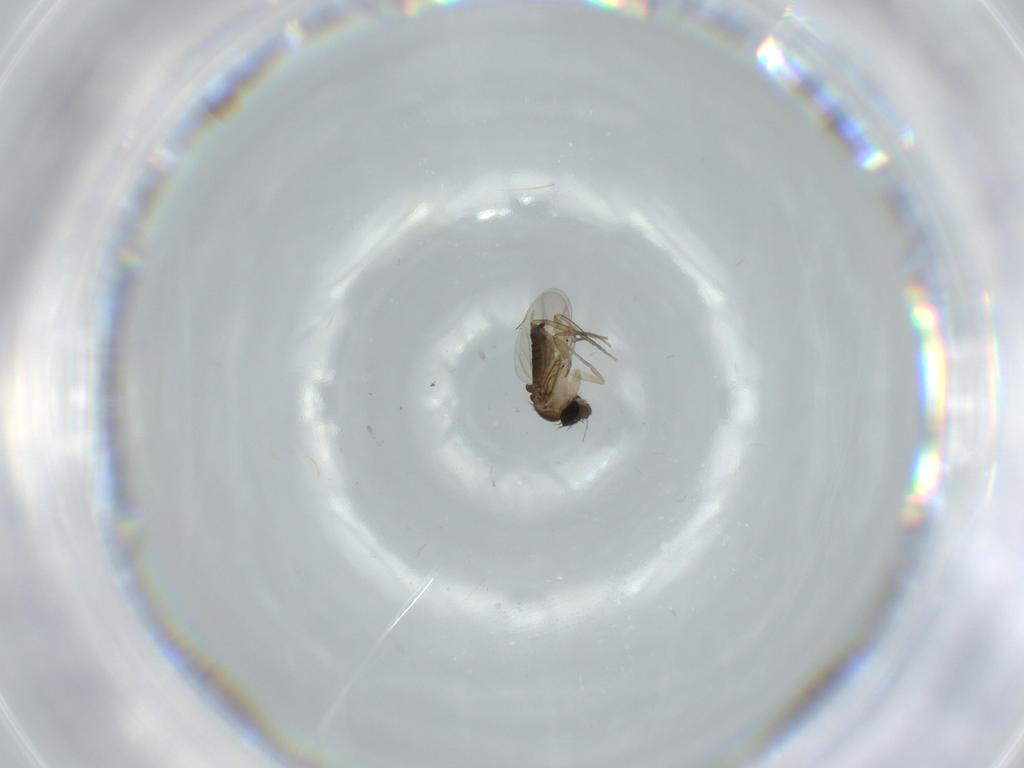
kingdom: Animalia
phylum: Arthropoda
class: Insecta
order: Diptera
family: Phoridae
